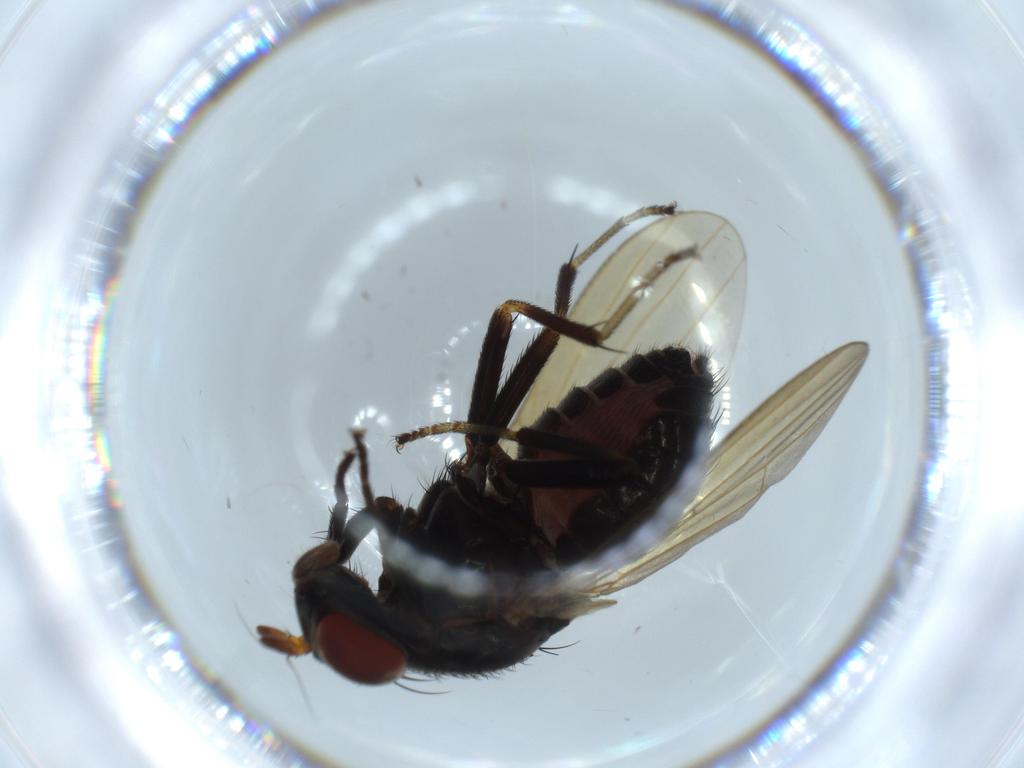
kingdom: Animalia
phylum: Arthropoda
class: Insecta
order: Diptera
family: Lauxaniidae
